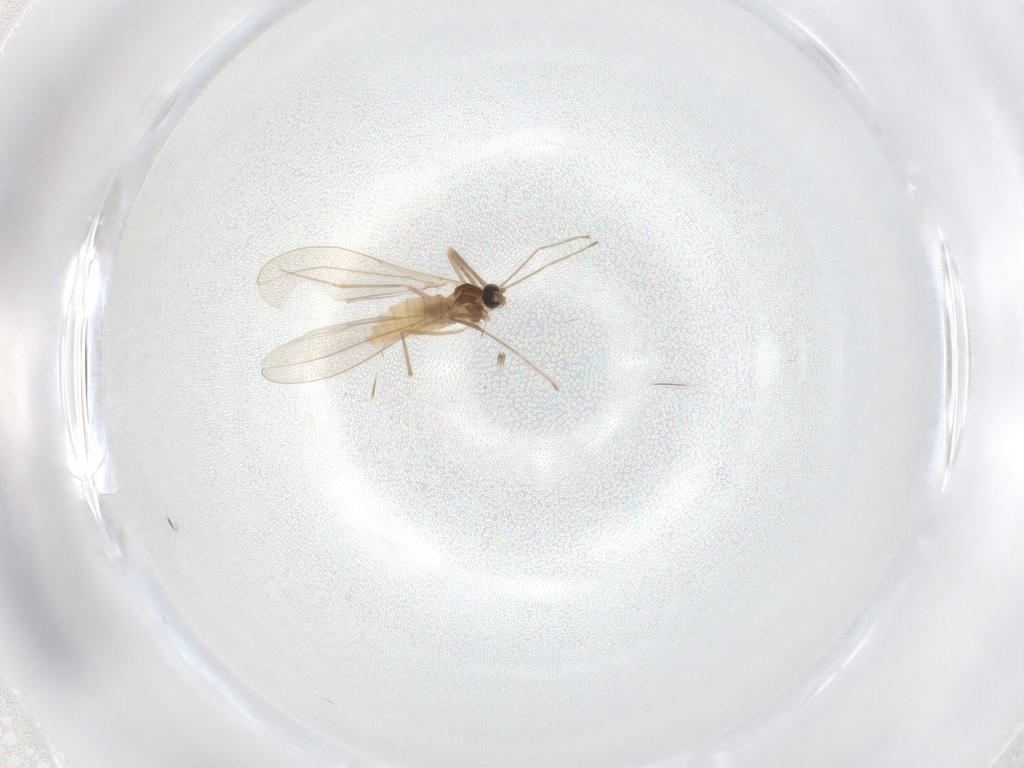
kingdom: Animalia
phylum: Arthropoda
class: Insecta
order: Diptera
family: Cecidomyiidae
